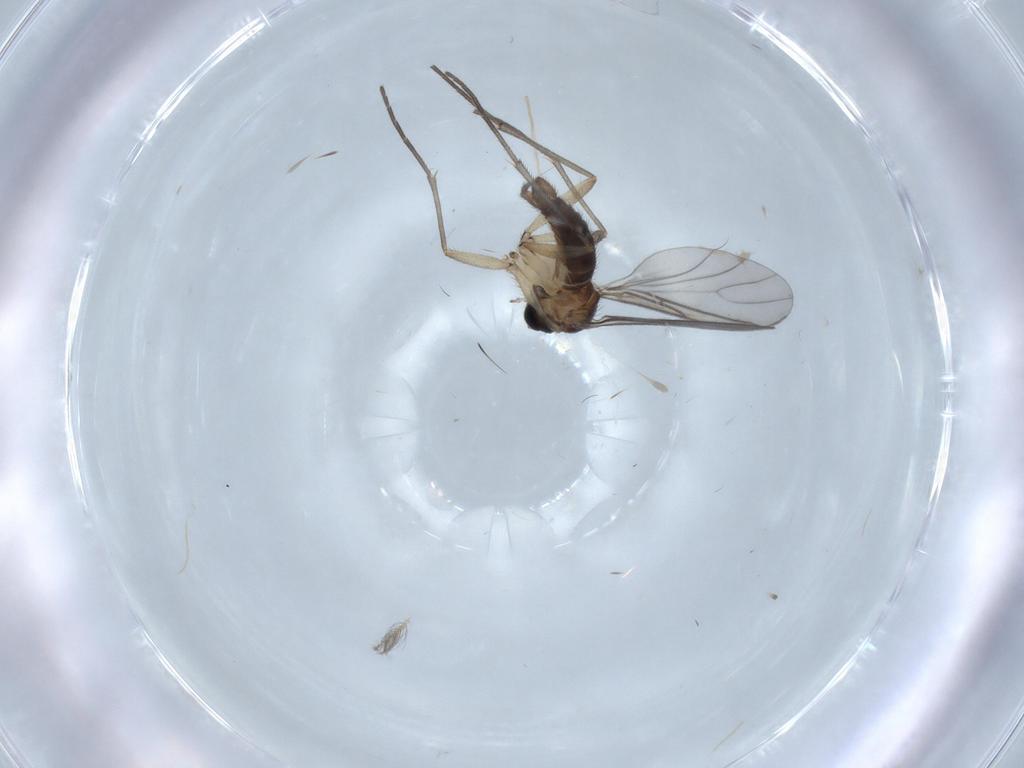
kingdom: Animalia
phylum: Arthropoda
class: Insecta
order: Diptera
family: Sciaridae
